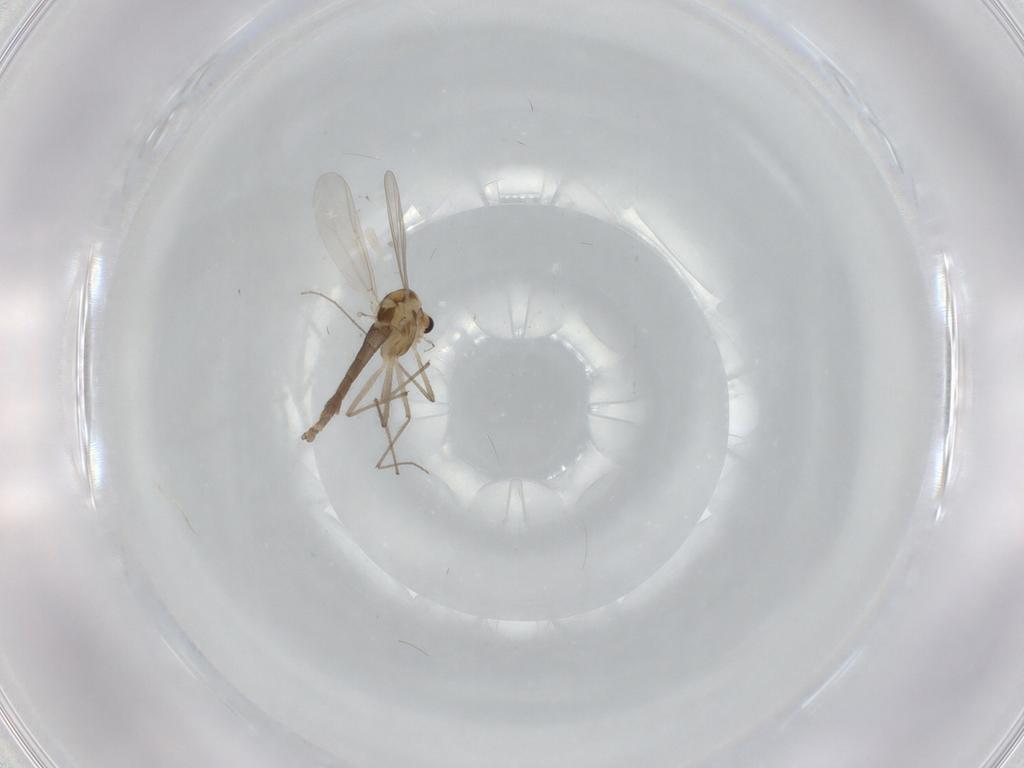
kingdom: Animalia
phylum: Arthropoda
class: Insecta
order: Diptera
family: Chironomidae
